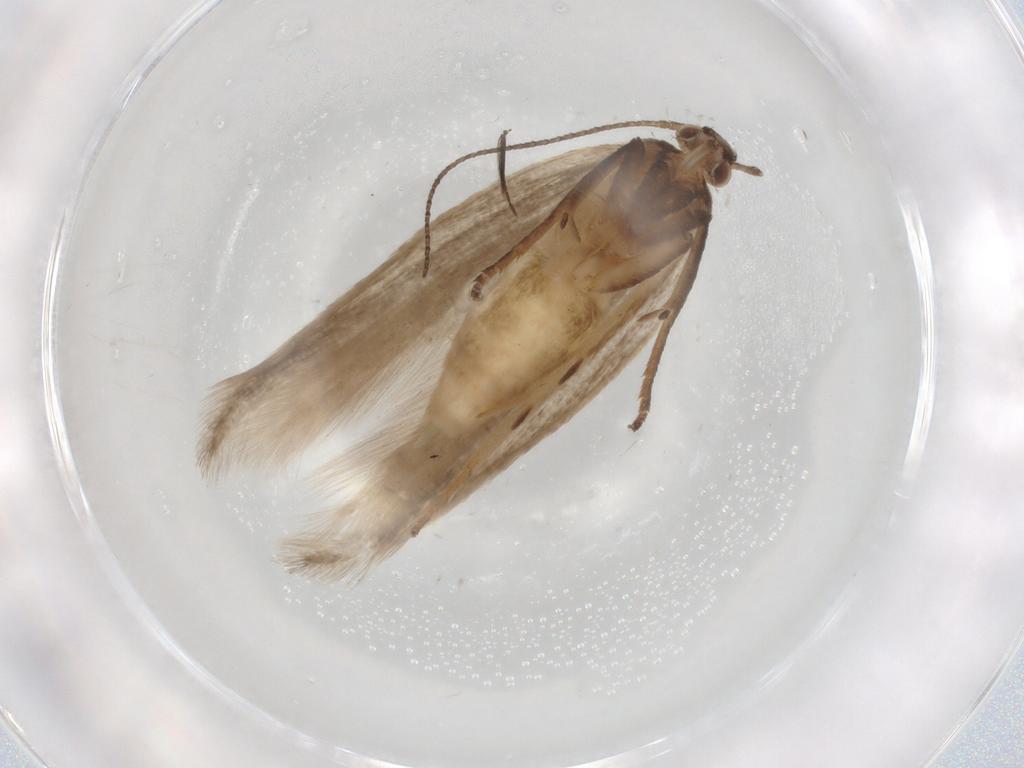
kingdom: Animalia
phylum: Arthropoda
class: Insecta
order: Lepidoptera
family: Gelechiidae
